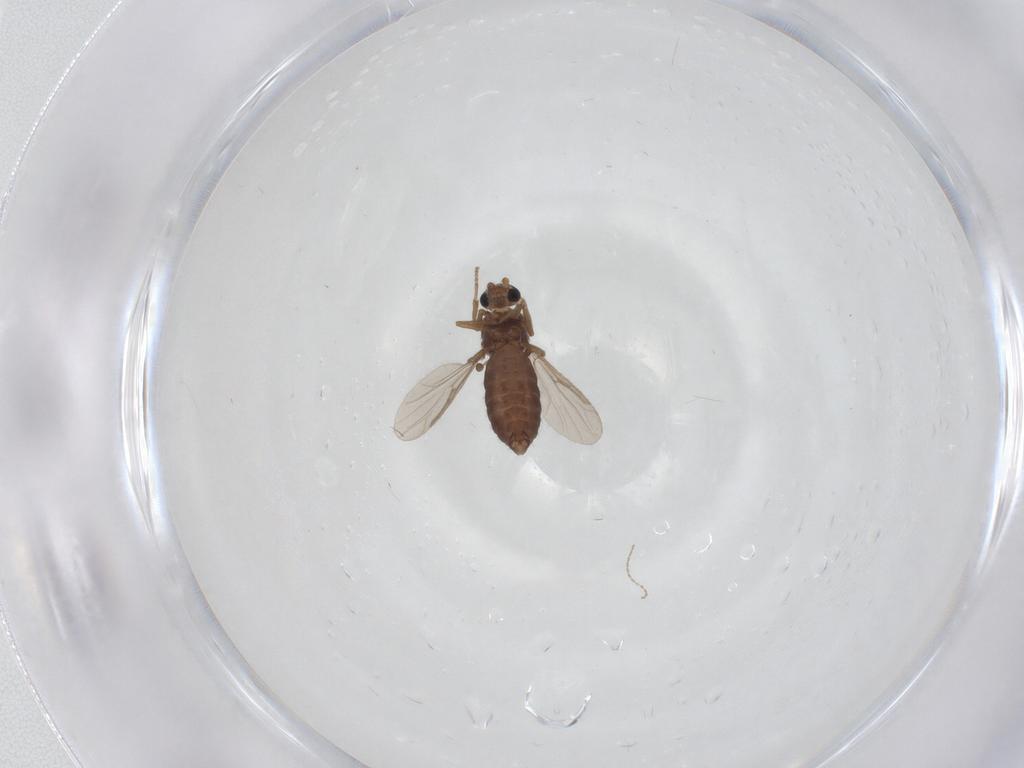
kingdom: Animalia
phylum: Arthropoda
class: Insecta
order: Diptera
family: Ceratopogonidae
